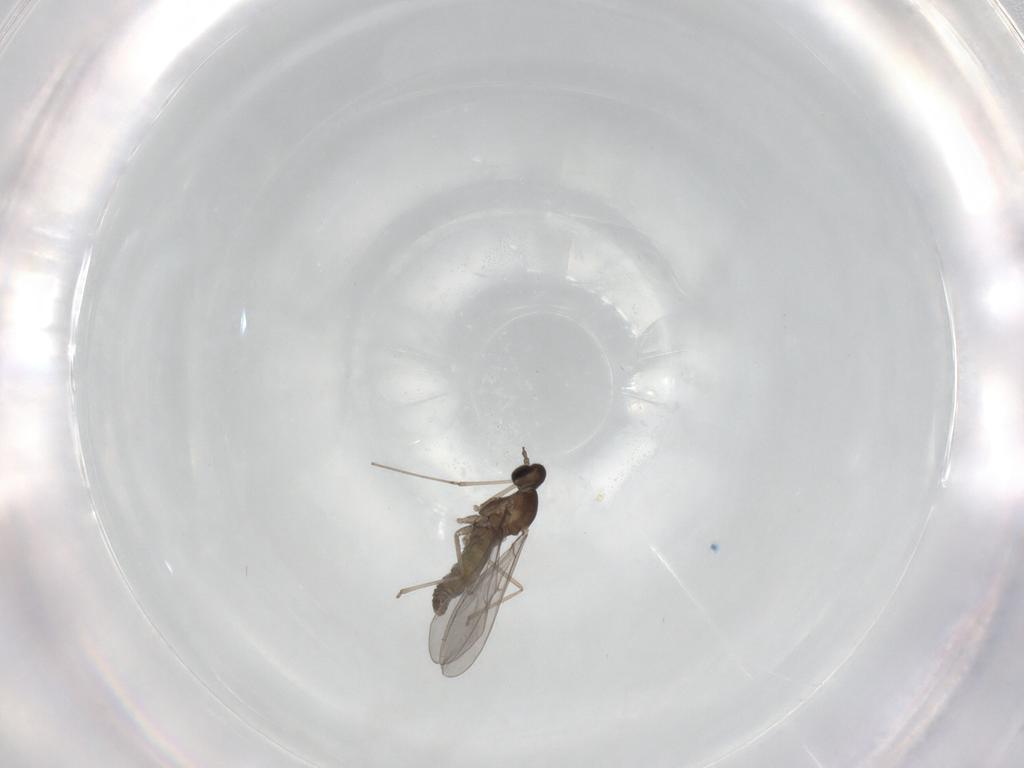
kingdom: Animalia
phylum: Arthropoda
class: Insecta
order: Diptera
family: Ceratopogonidae
